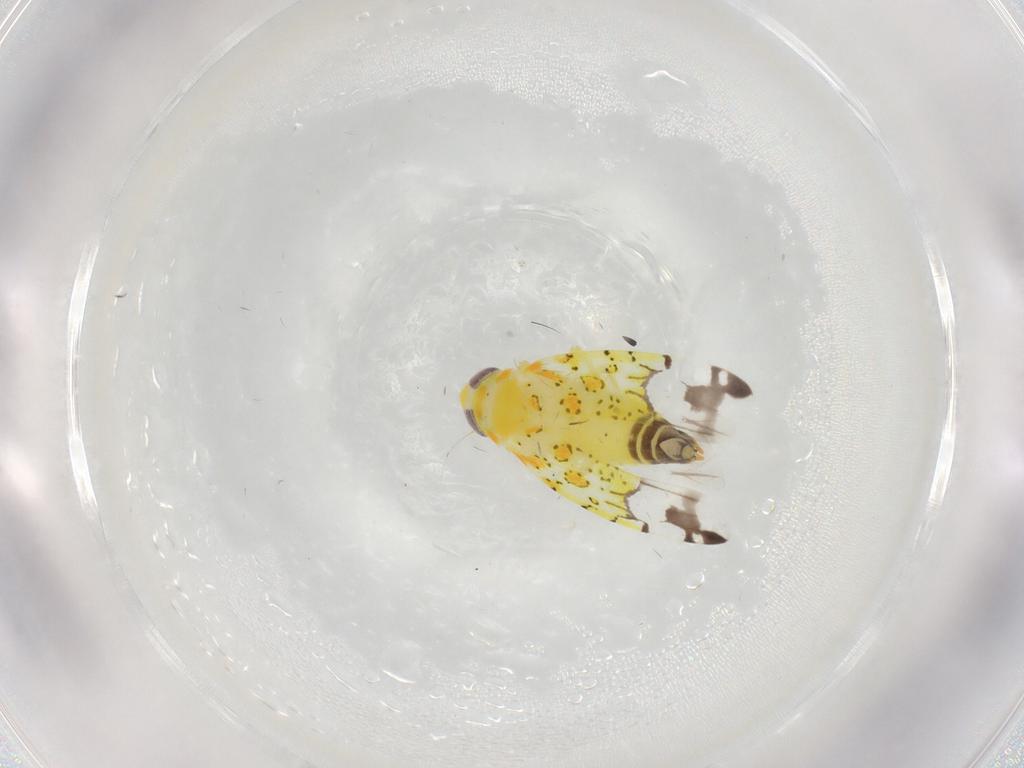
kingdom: Animalia
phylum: Arthropoda
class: Insecta
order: Hemiptera
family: Cicadellidae
